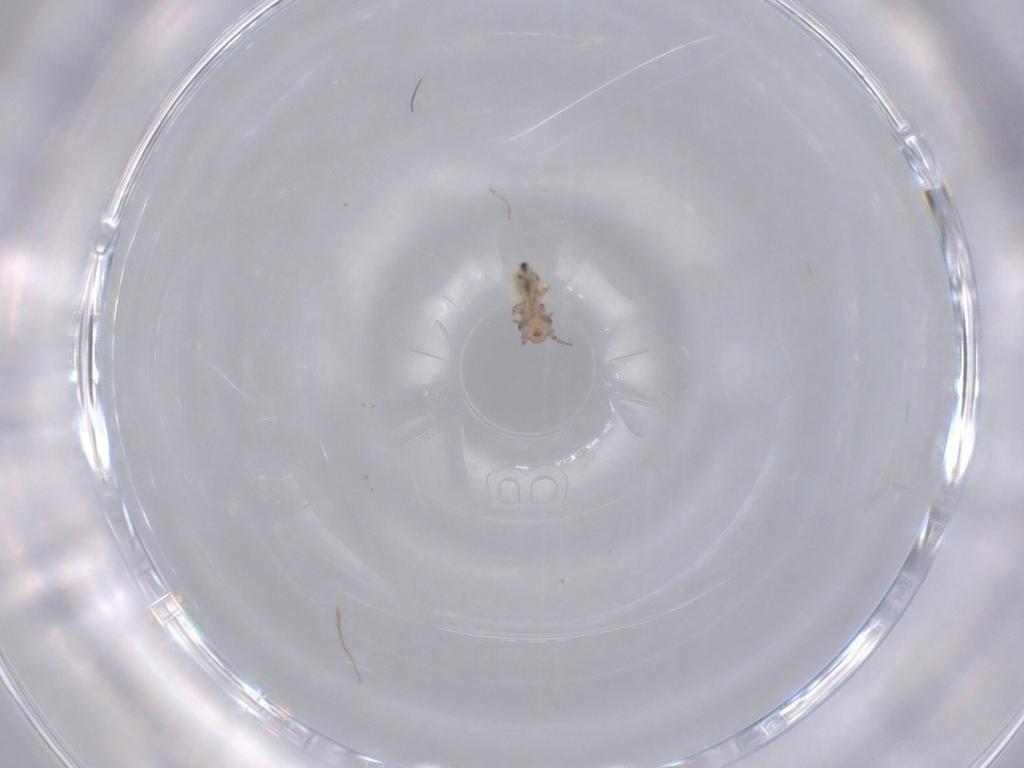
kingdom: Animalia
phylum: Arthropoda
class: Insecta
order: Psocodea
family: Lepidopsocidae
